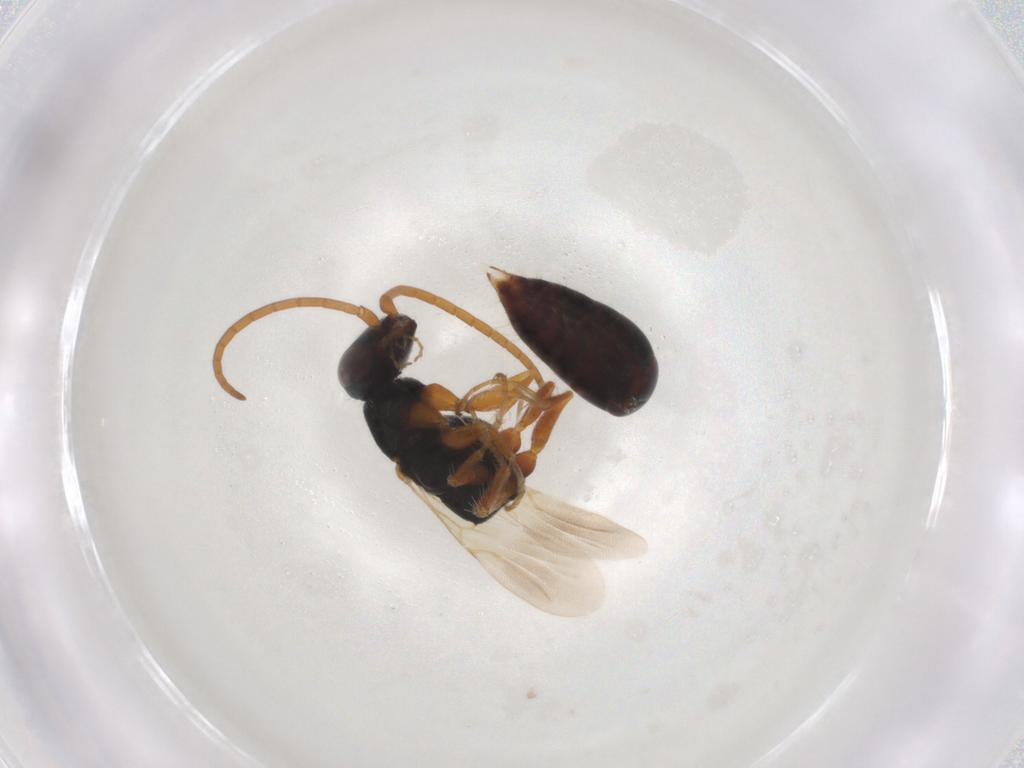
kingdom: Animalia
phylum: Arthropoda
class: Insecta
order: Hymenoptera
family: Bethylidae
